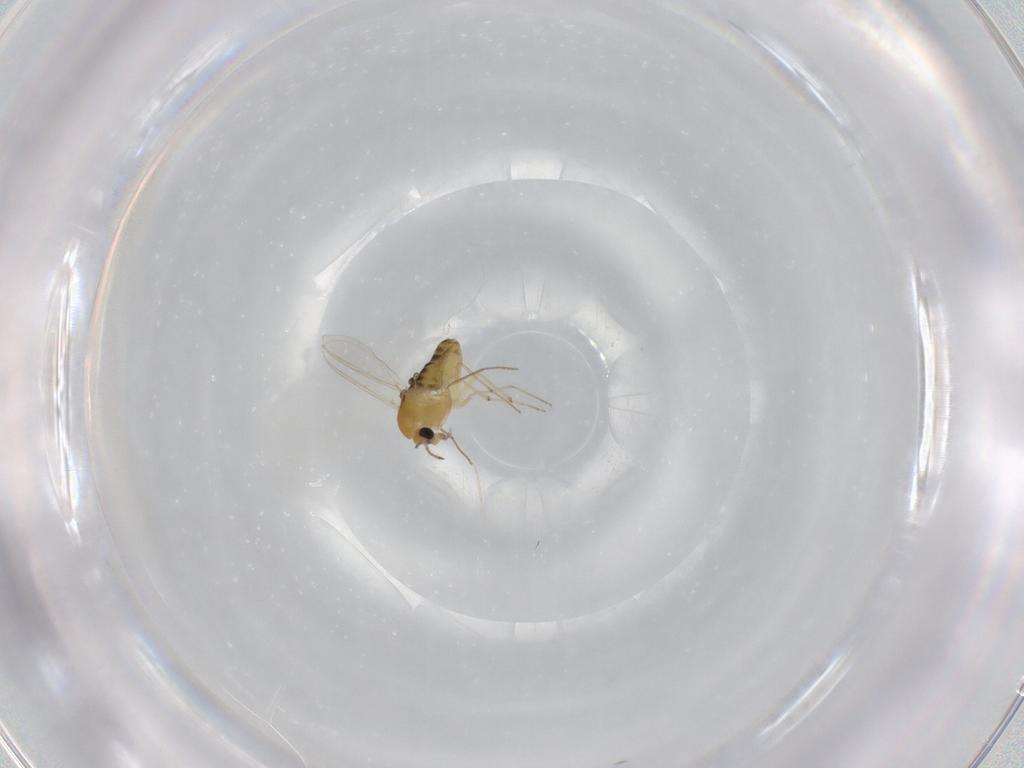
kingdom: Animalia
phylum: Arthropoda
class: Insecta
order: Diptera
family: Chironomidae
